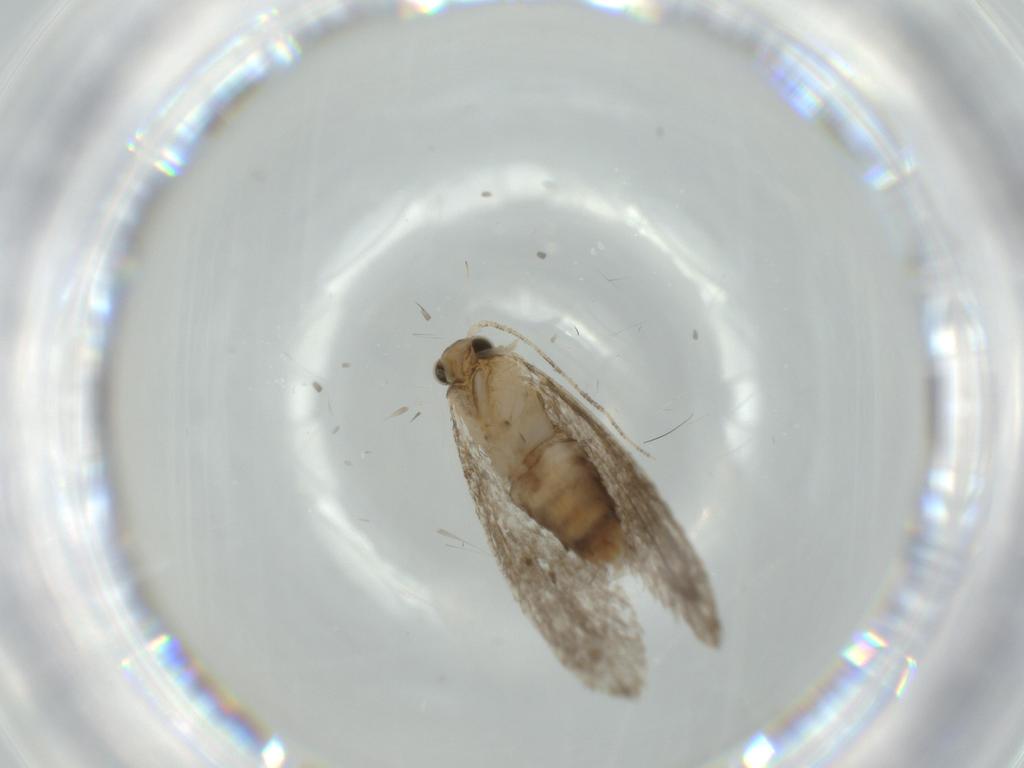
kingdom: Animalia
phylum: Arthropoda
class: Insecta
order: Lepidoptera
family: Tineidae
